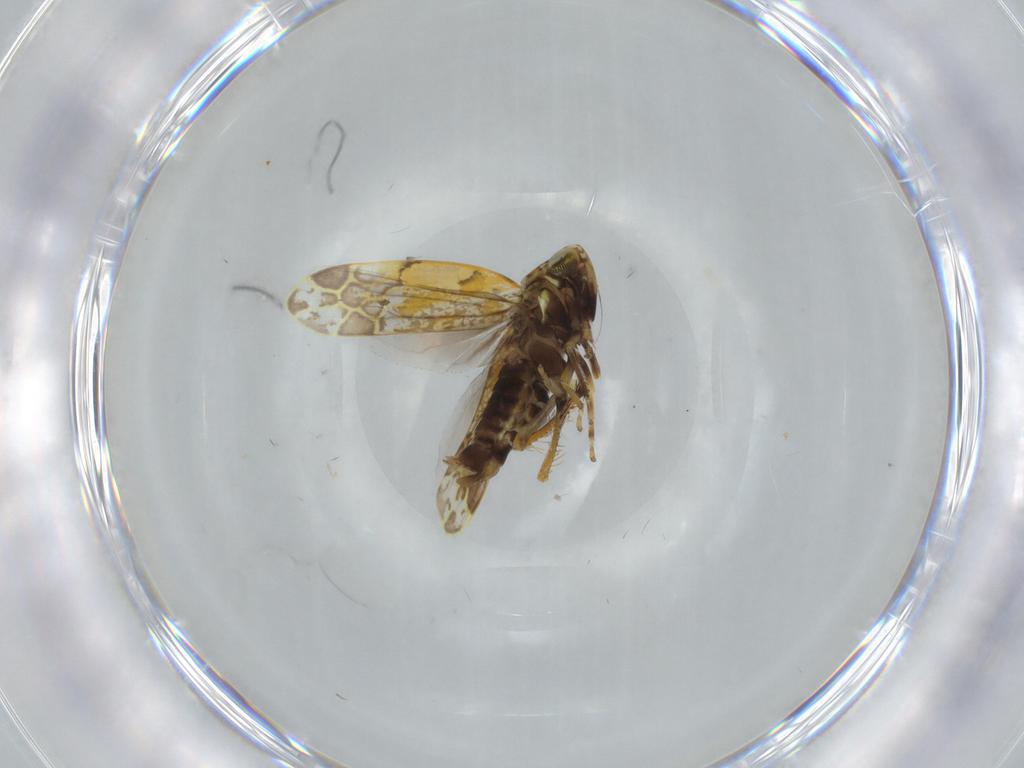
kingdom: Animalia
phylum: Arthropoda
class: Insecta
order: Hemiptera
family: Cicadellidae
